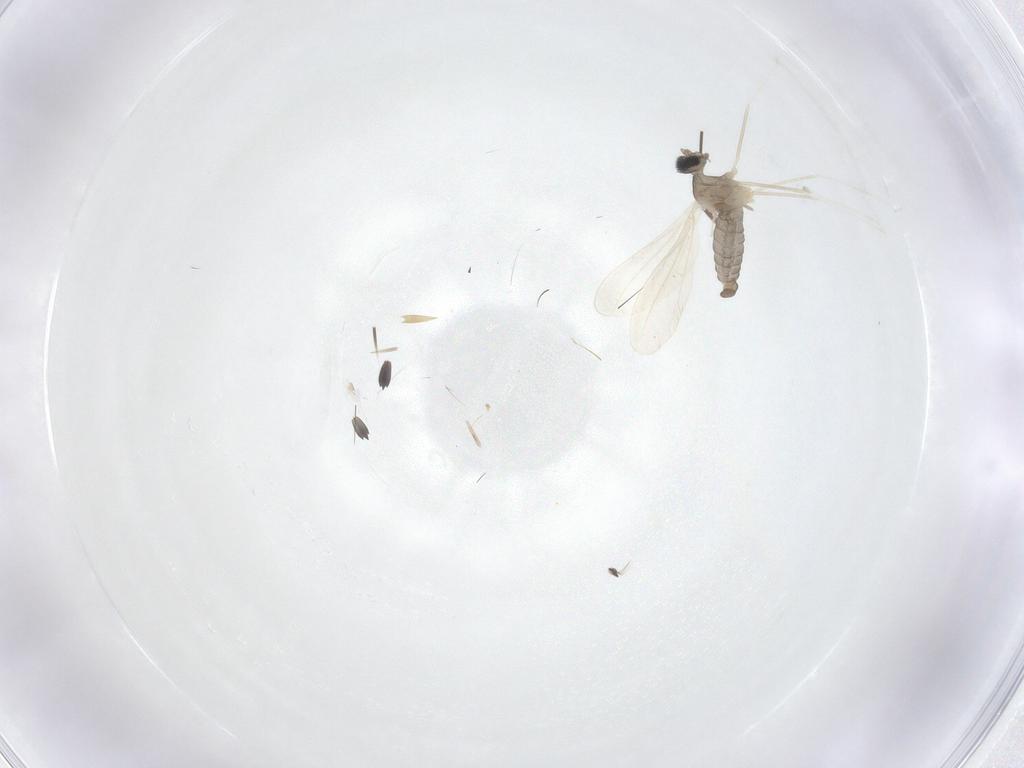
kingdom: Animalia
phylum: Arthropoda
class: Insecta
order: Diptera
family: Cecidomyiidae
